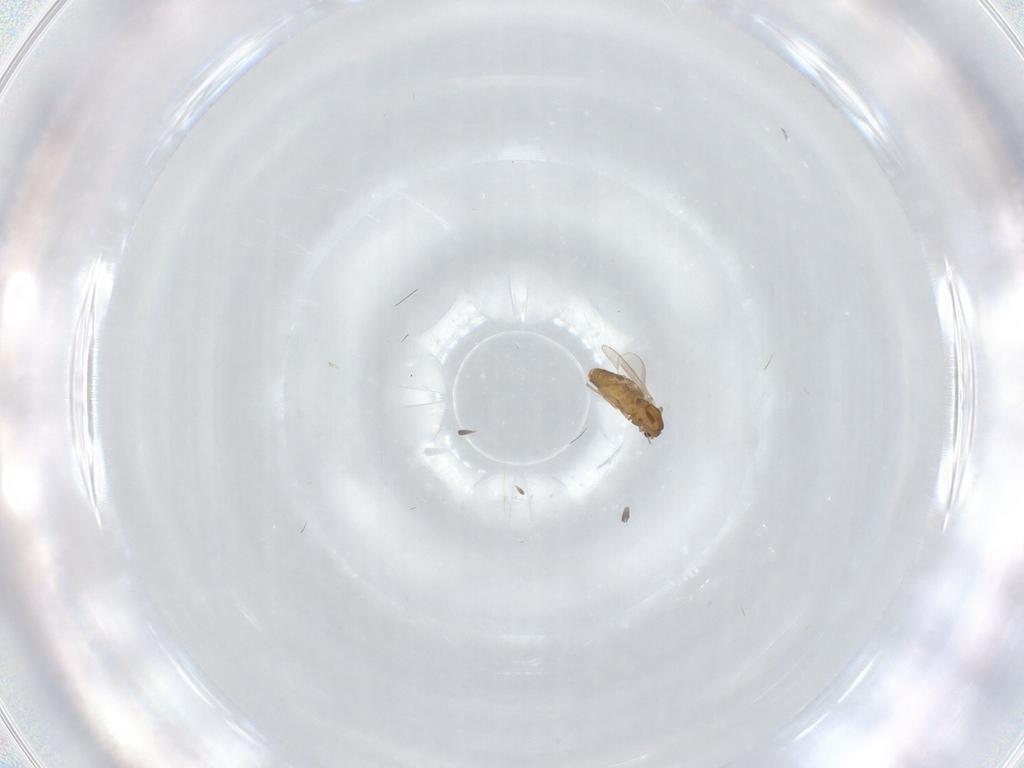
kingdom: Animalia
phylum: Arthropoda
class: Insecta
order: Diptera
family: Chironomidae
